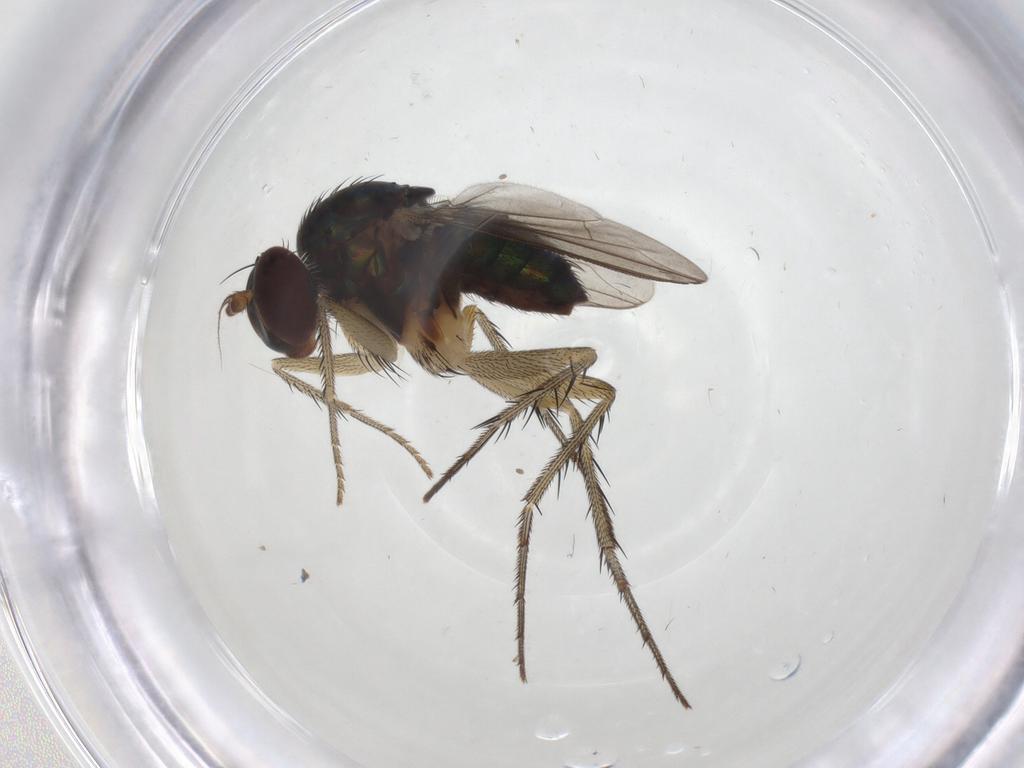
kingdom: Animalia
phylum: Arthropoda
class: Insecta
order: Diptera
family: Dolichopodidae
